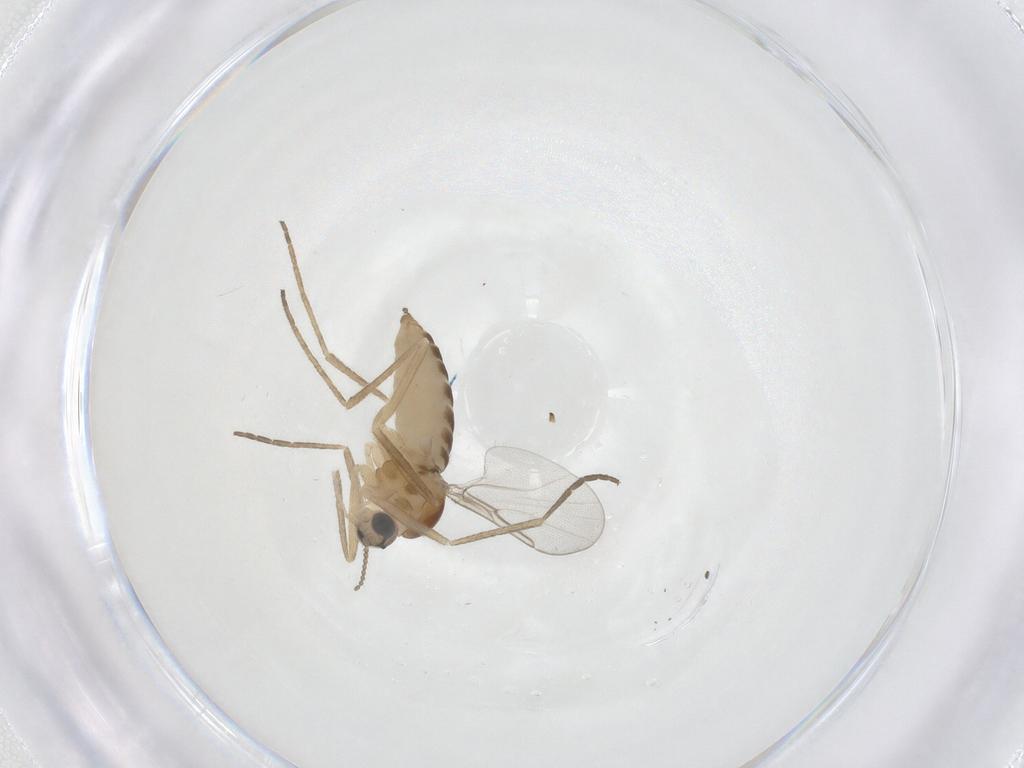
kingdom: Animalia
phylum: Arthropoda
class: Insecta
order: Diptera
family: Cecidomyiidae
